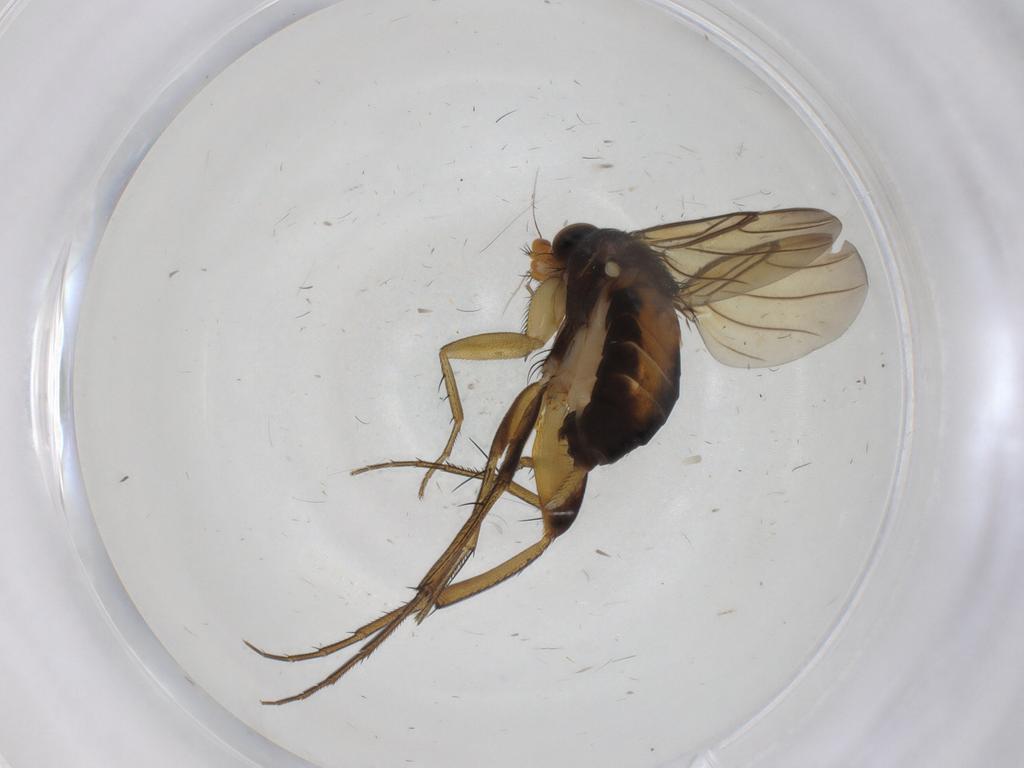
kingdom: Animalia
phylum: Arthropoda
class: Insecta
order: Diptera
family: Phoridae
